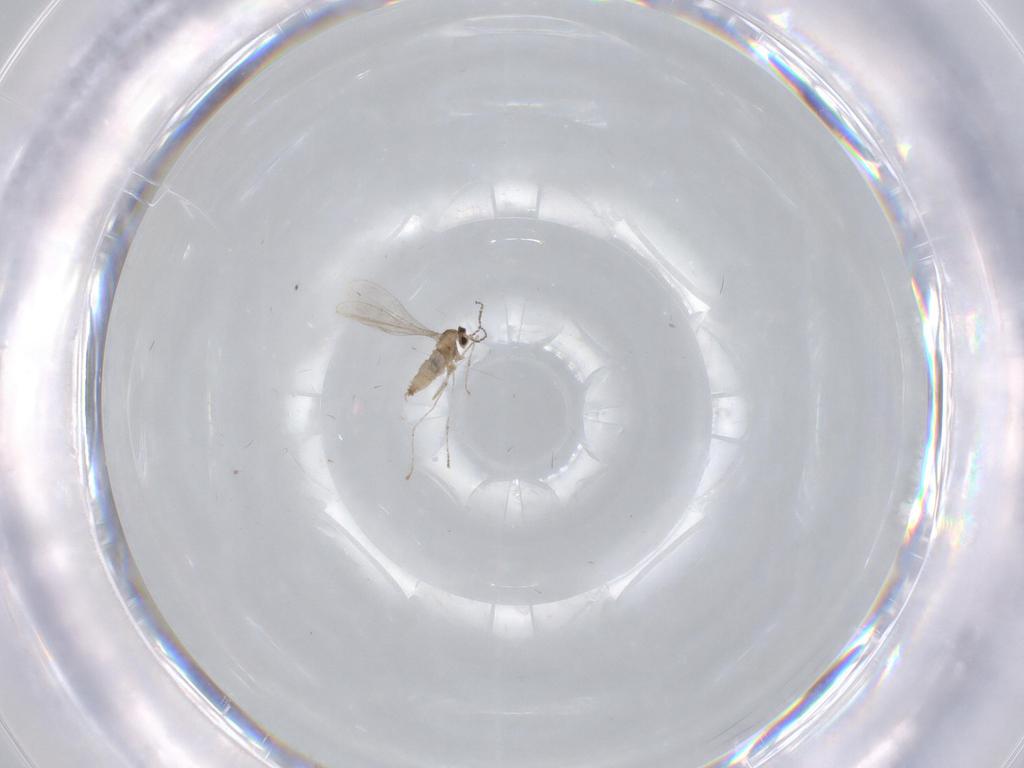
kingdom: Animalia
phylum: Arthropoda
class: Insecta
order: Diptera
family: Cecidomyiidae
